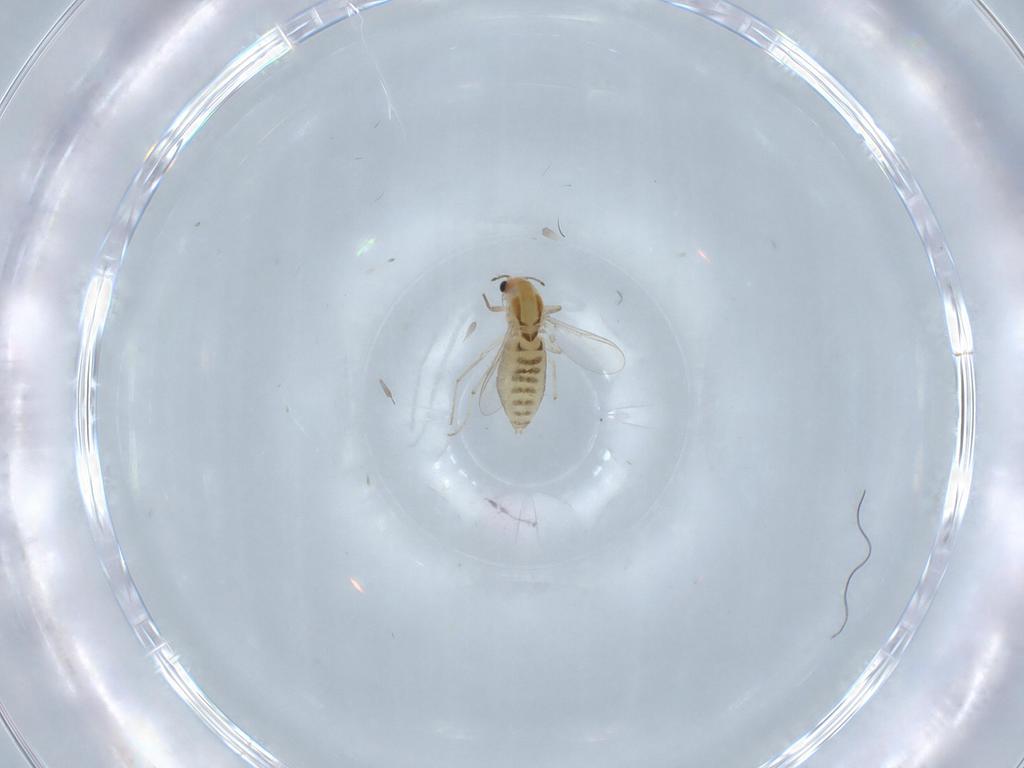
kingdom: Animalia
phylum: Arthropoda
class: Insecta
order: Diptera
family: Chironomidae
